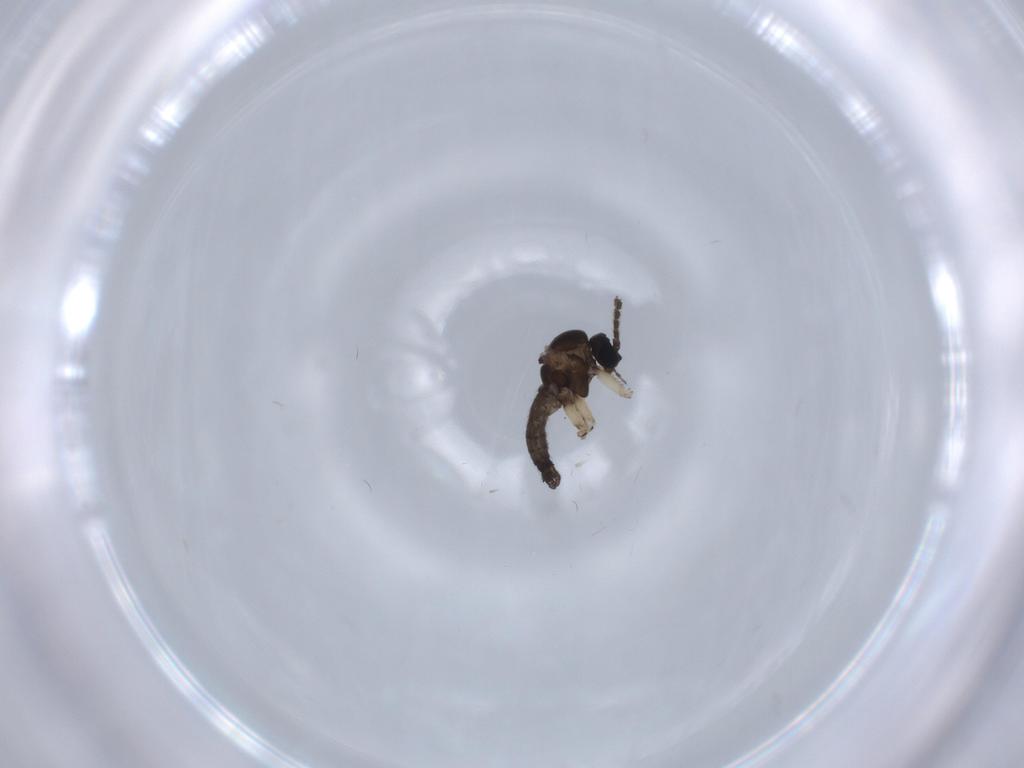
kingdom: Animalia
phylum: Arthropoda
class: Insecta
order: Diptera
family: Sciaridae
